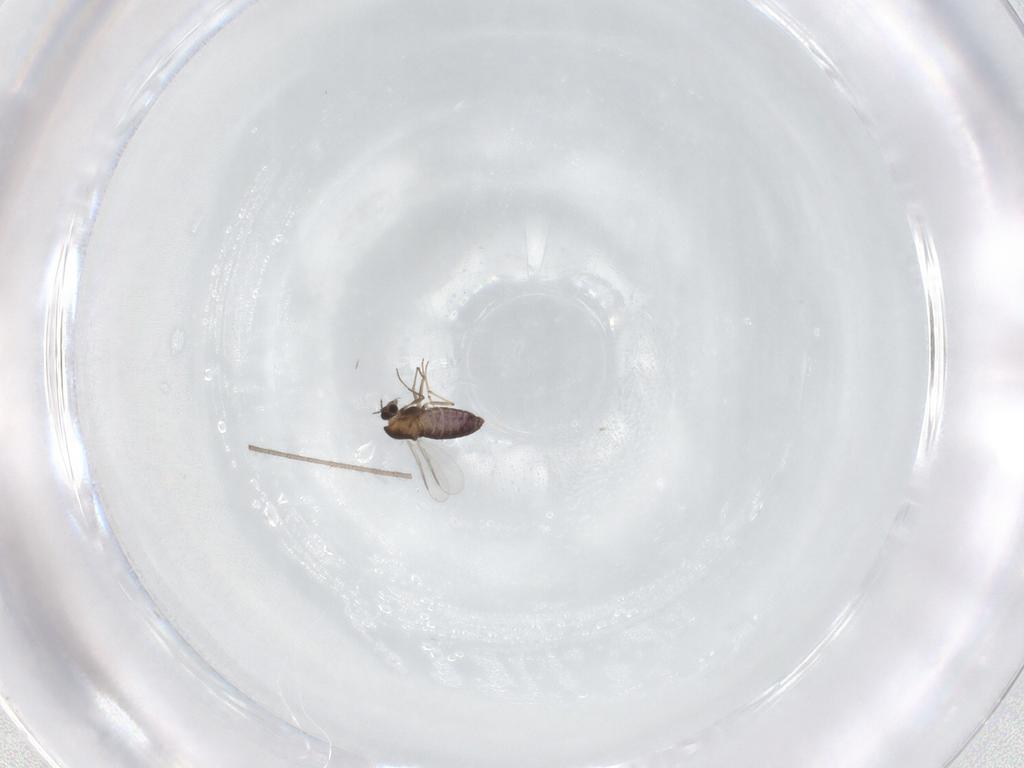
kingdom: Animalia
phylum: Arthropoda
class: Insecta
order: Diptera
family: Chironomidae
